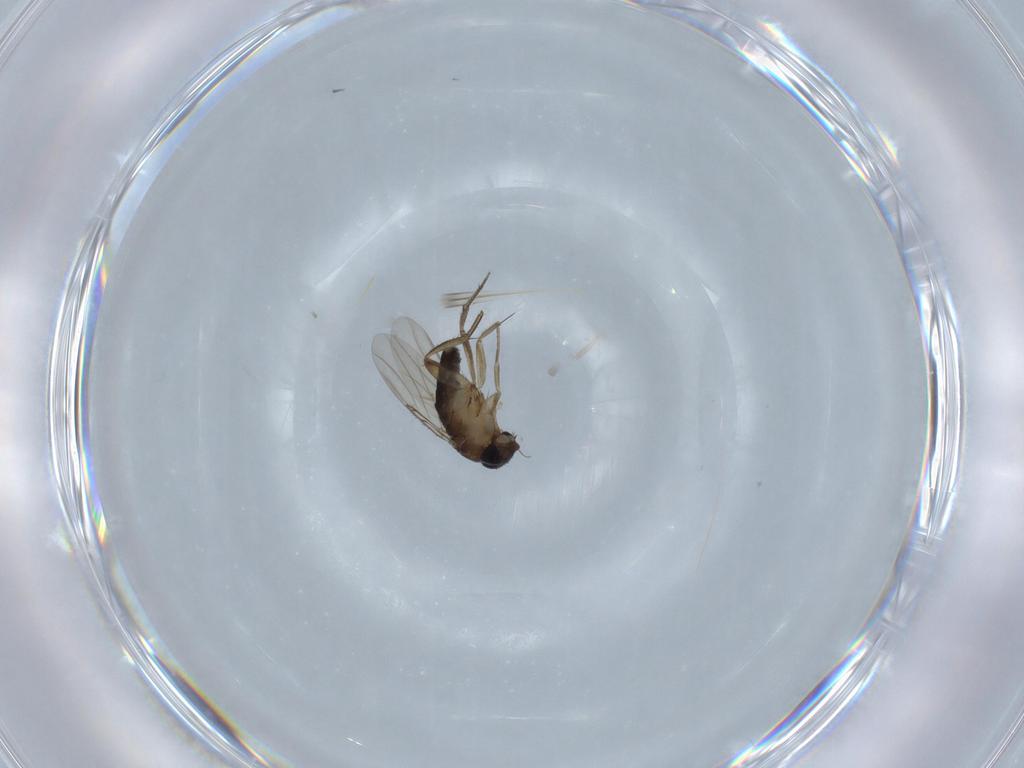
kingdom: Animalia
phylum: Arthropoda
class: Insecta
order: Diptera
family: Phoridae
